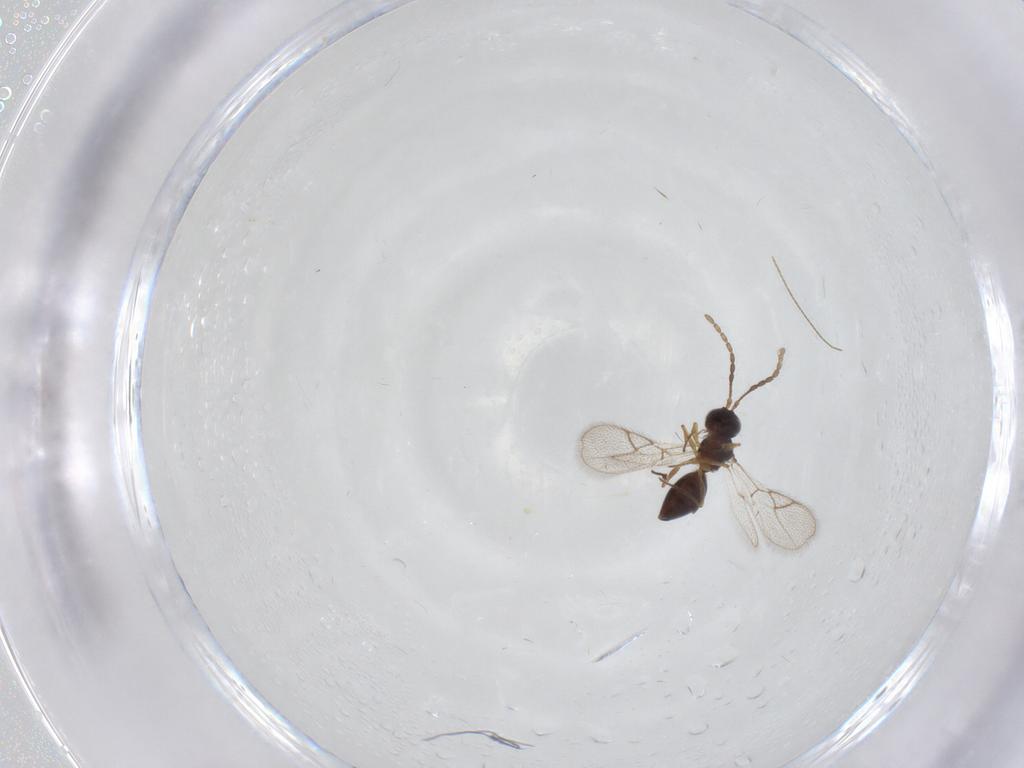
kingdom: Animalia
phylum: Arthropoda
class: Insecta
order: Hymenoptera
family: Figitidae
